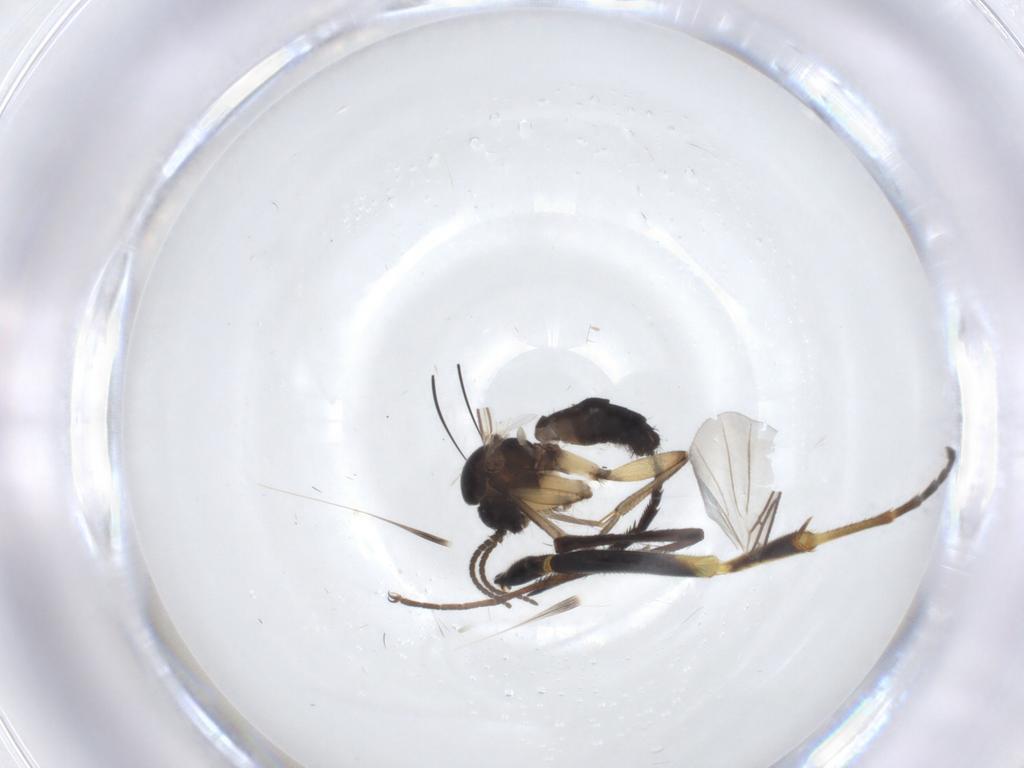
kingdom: Animalia
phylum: Arthropoda
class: Insecta
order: Diptera
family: Mycetophilidae
